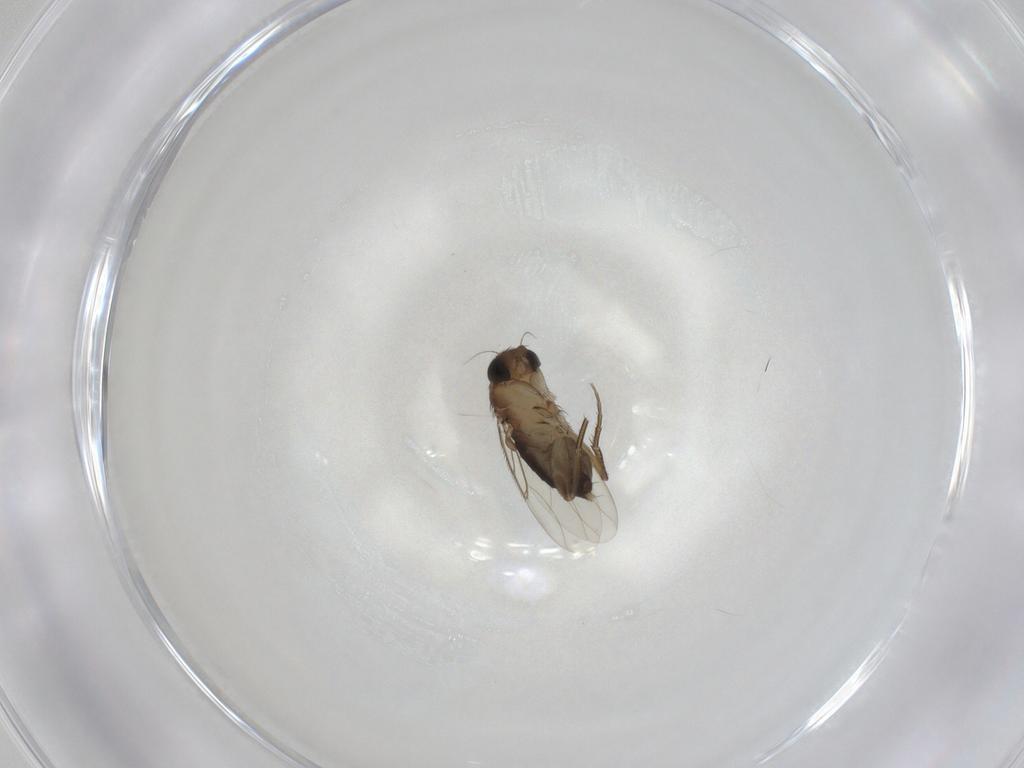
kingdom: Animalia
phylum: Arthropoda
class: Insecta
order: Diptera
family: Phoridae
